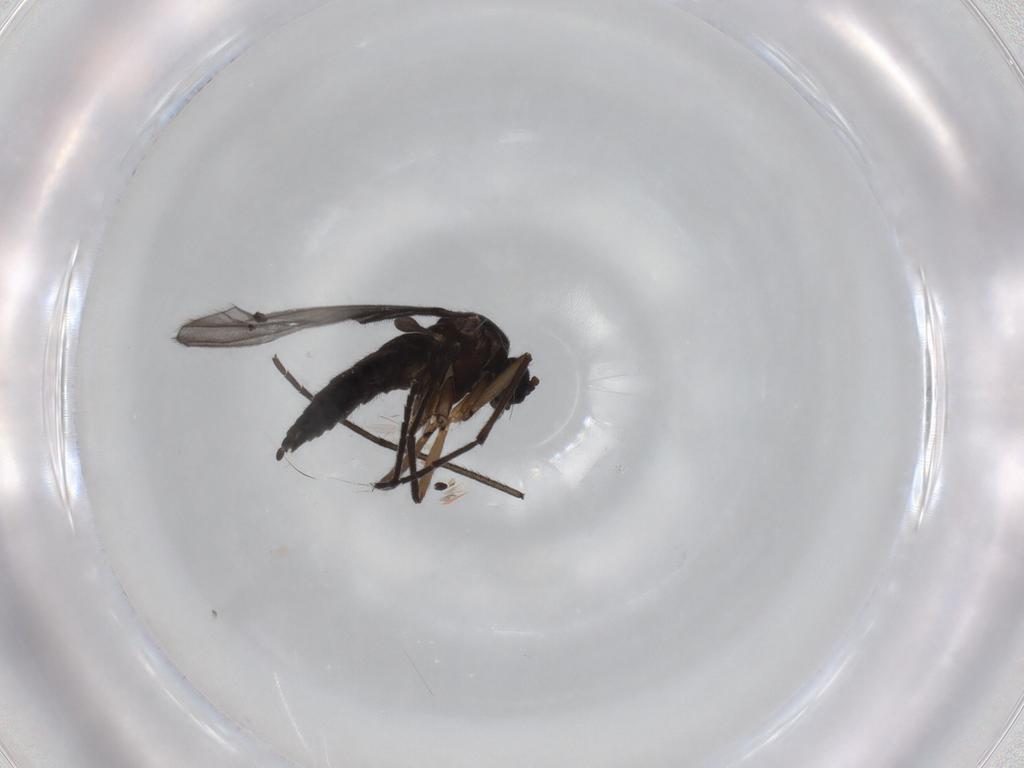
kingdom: Animalia
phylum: Arthropoda
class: Insecta
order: Diptera
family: Sciaridae
